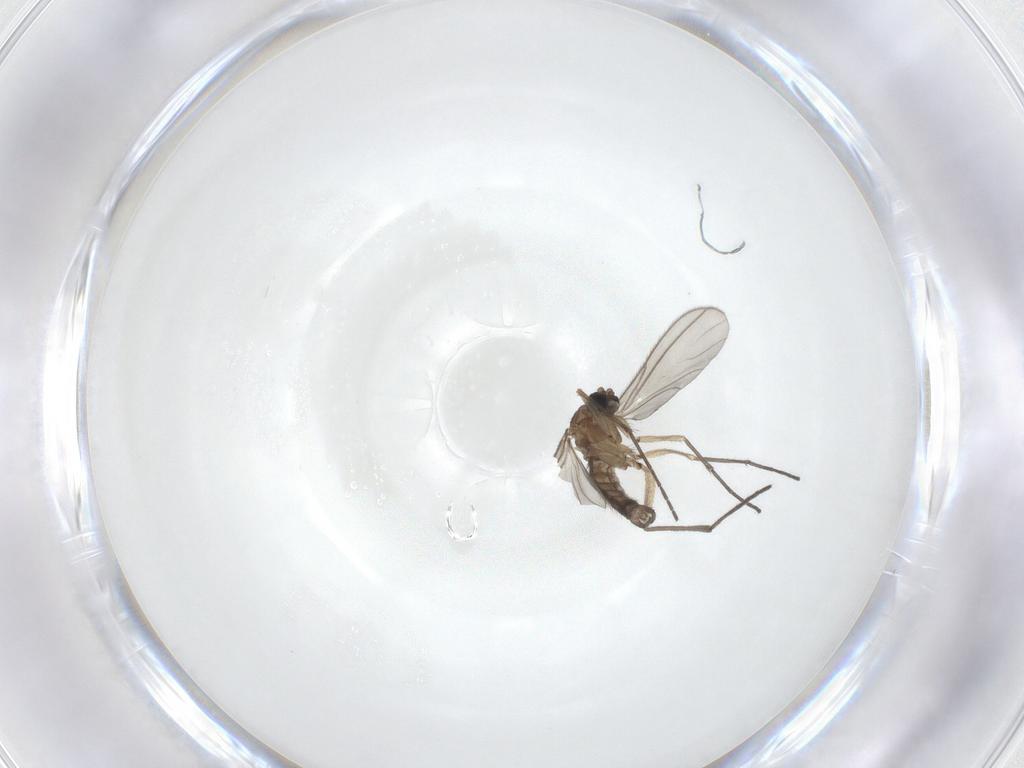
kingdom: Animalia
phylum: Arthropoda
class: Insecta
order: Diptera
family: Sciaridae
